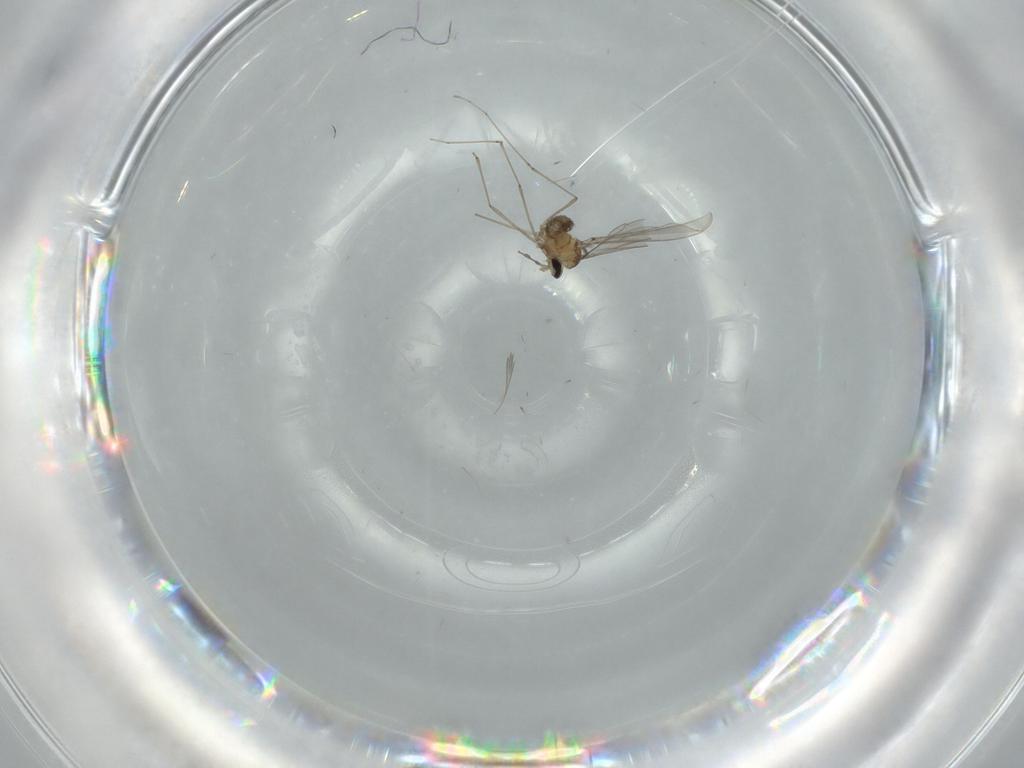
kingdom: Animalia
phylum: Arthropoda
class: Insecta
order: Diptera
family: Cecidomyiidae
